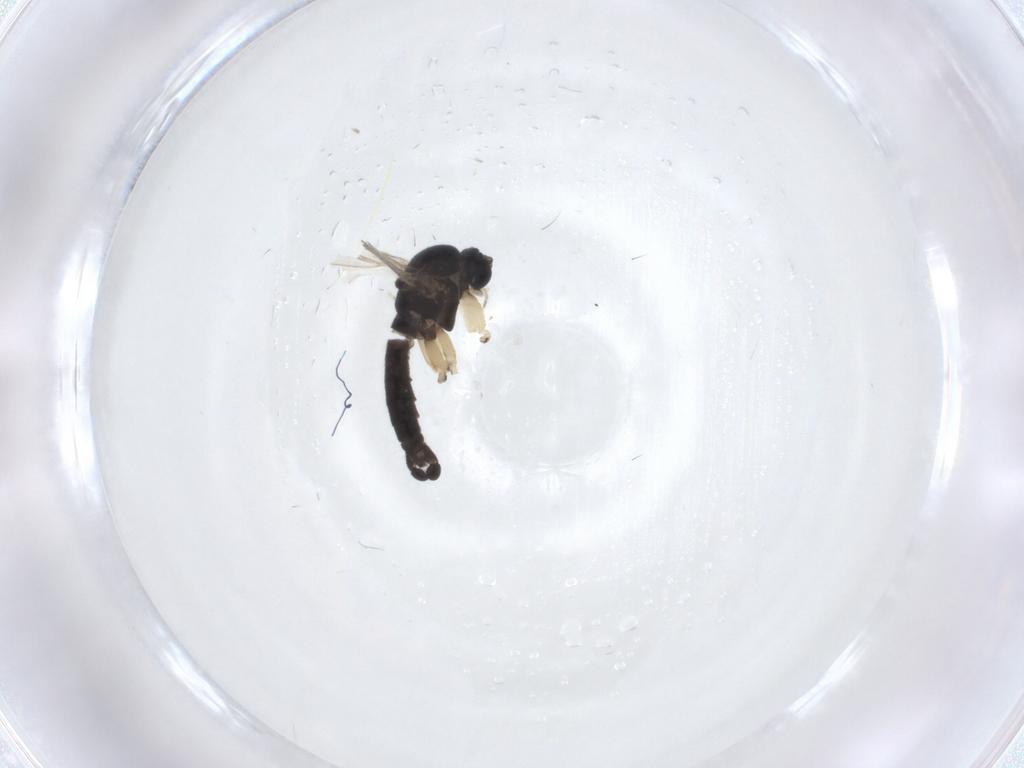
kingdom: Animalia
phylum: Arthropoda
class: Insecta
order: Diptera
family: Sciaridae
